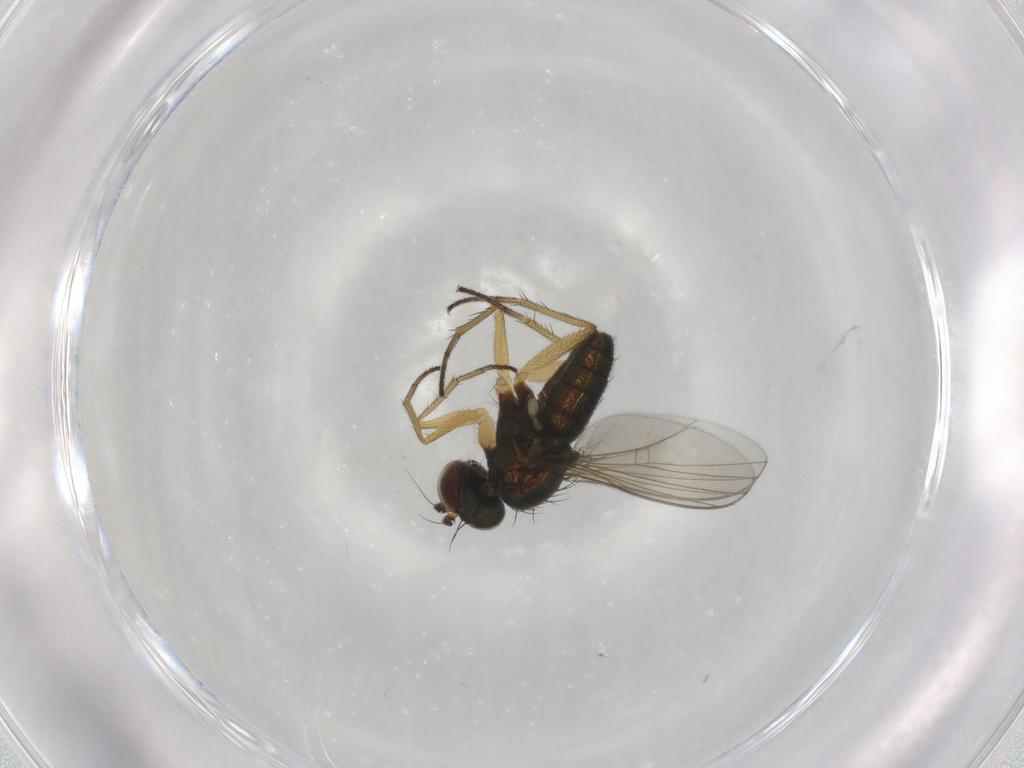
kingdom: Animalia
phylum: Arthropoda
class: Insecta
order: Diptera
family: Dolichopodidae
